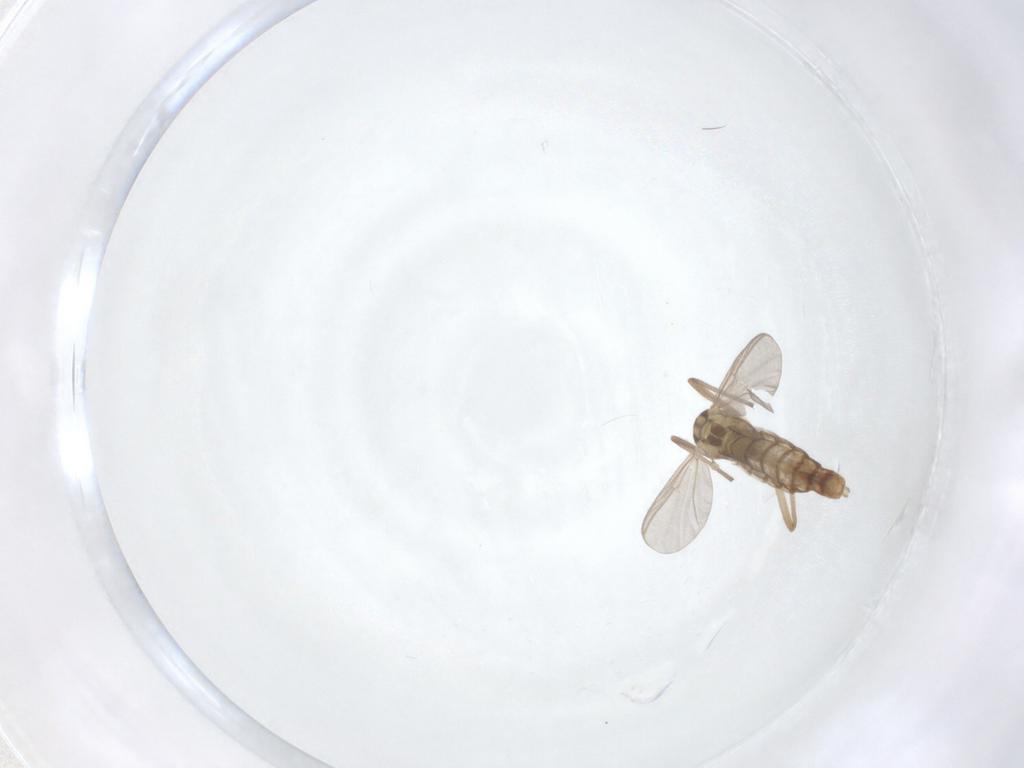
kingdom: Animalia
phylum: Arthropoda
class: Insecta
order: Diptera
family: Chironomidae
